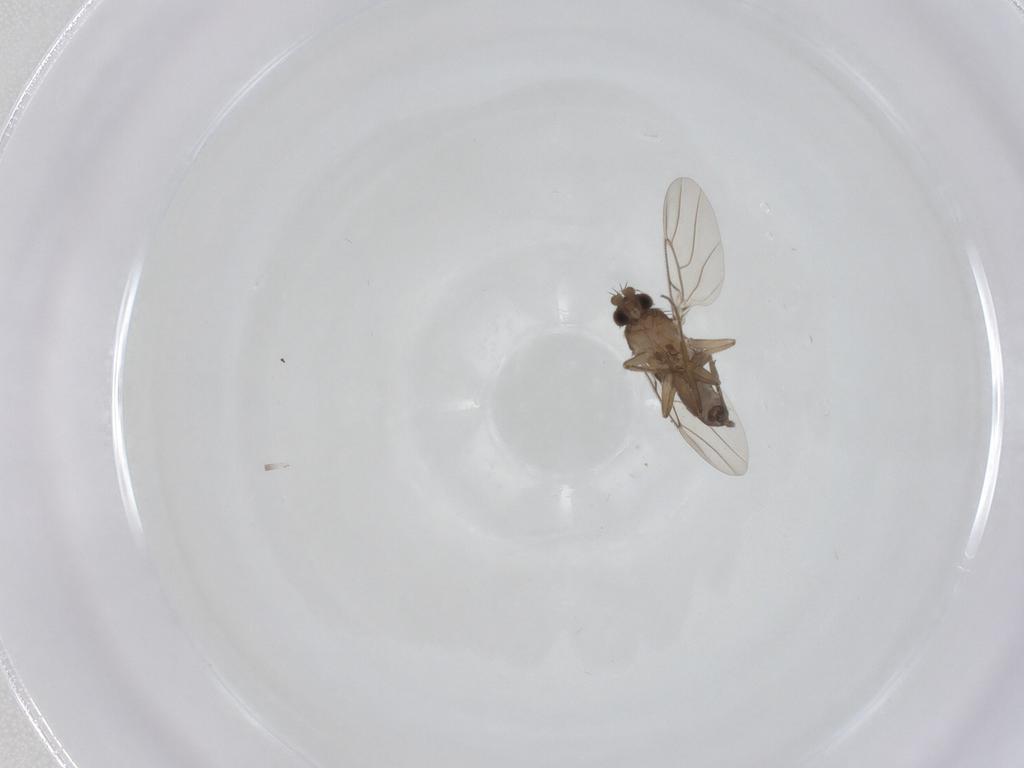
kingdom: Animalia
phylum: Arthropoda
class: Insecta
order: Diptera
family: Phoridae
